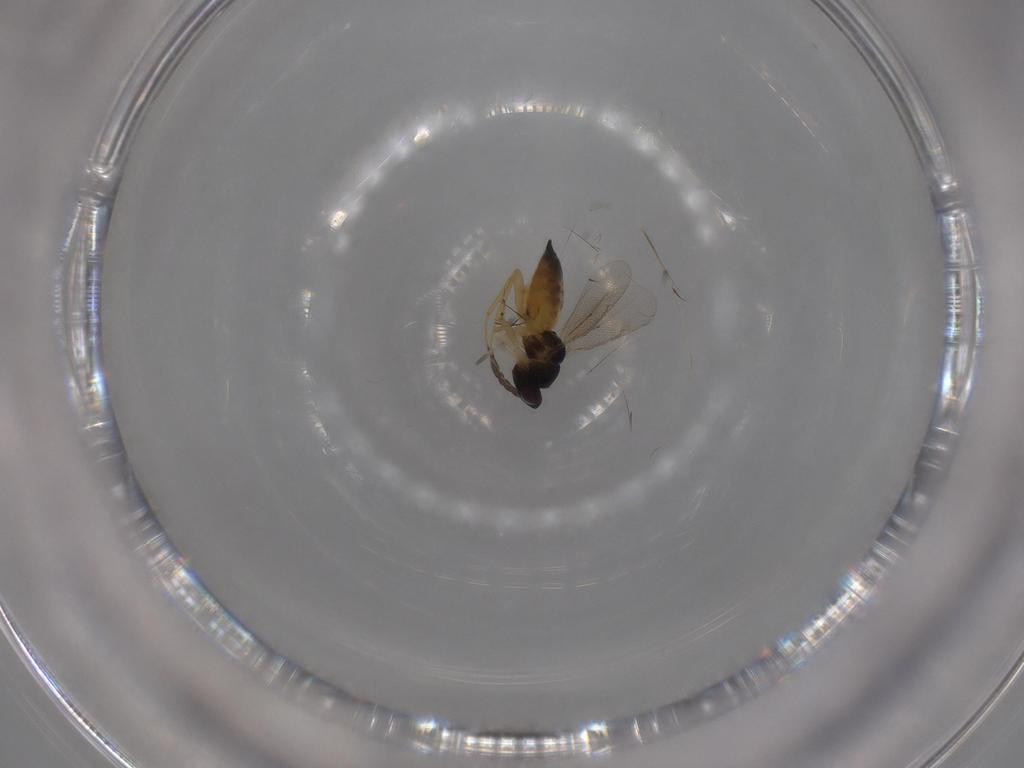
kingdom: Animalia
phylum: Arthropoda
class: Insecta
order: Hymenoptera
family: Eulophidae
